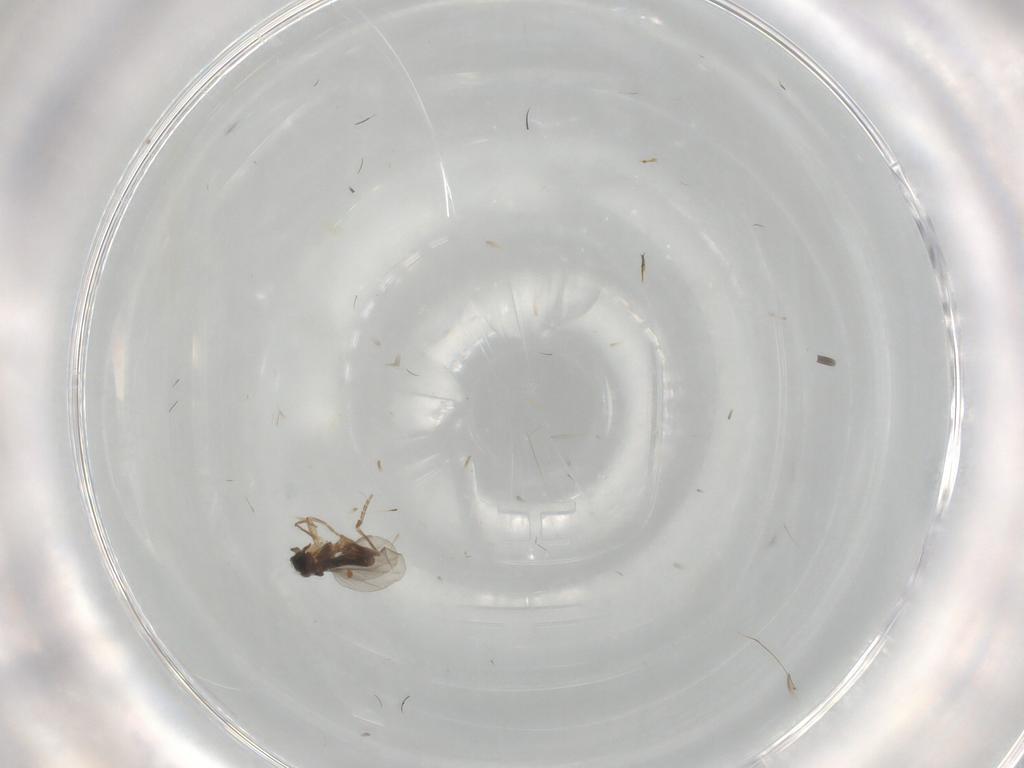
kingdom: Animalia
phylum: Arthropoda
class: Insecta
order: Diptera
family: Cecidomyiidae
